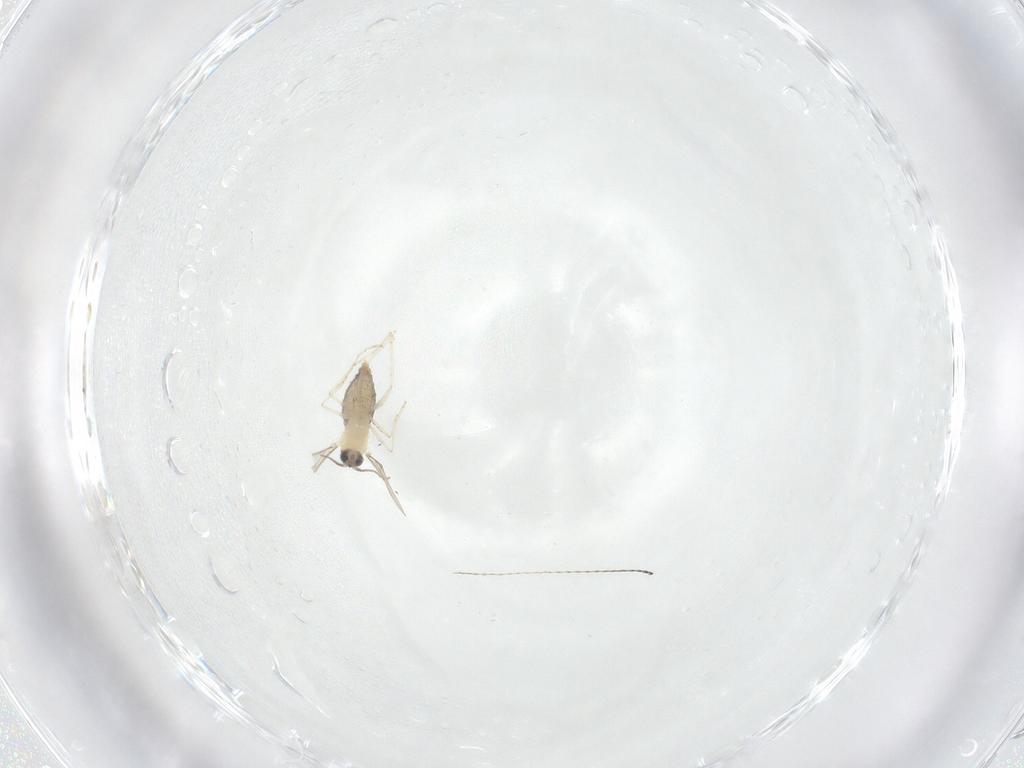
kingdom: Animalia
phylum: Arthropoda
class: Insecta
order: Diptera
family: Cecidomyiidae
